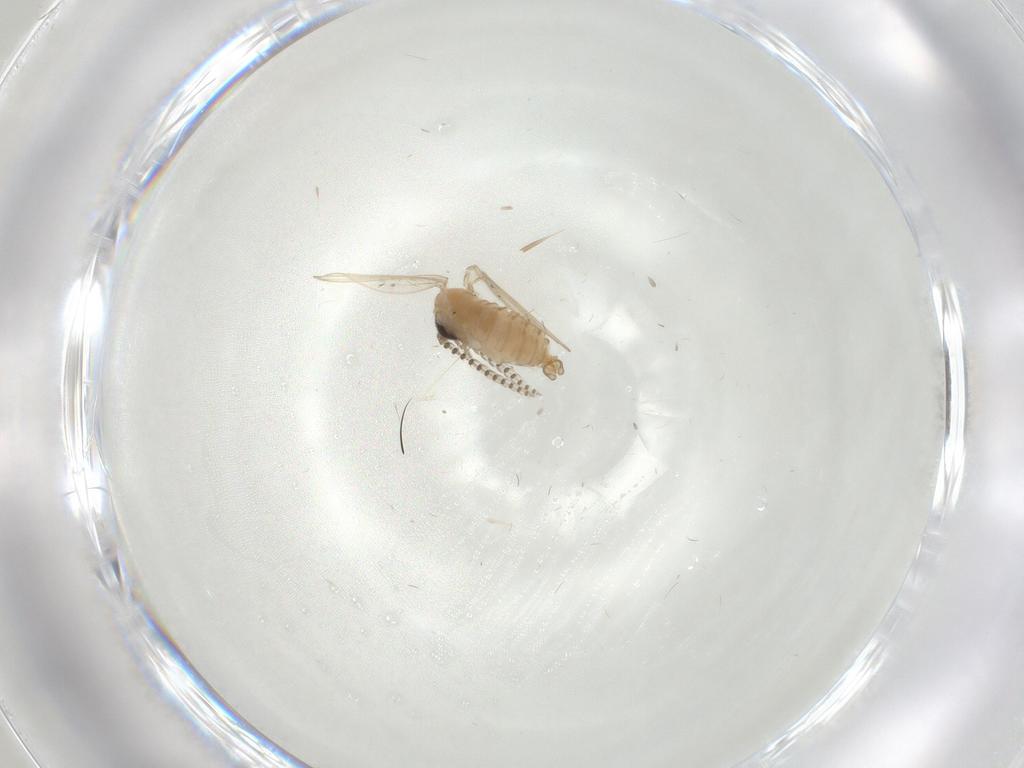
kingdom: Animalia
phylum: Arthropoda
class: Insecta
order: Diptera
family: Psychodidae
